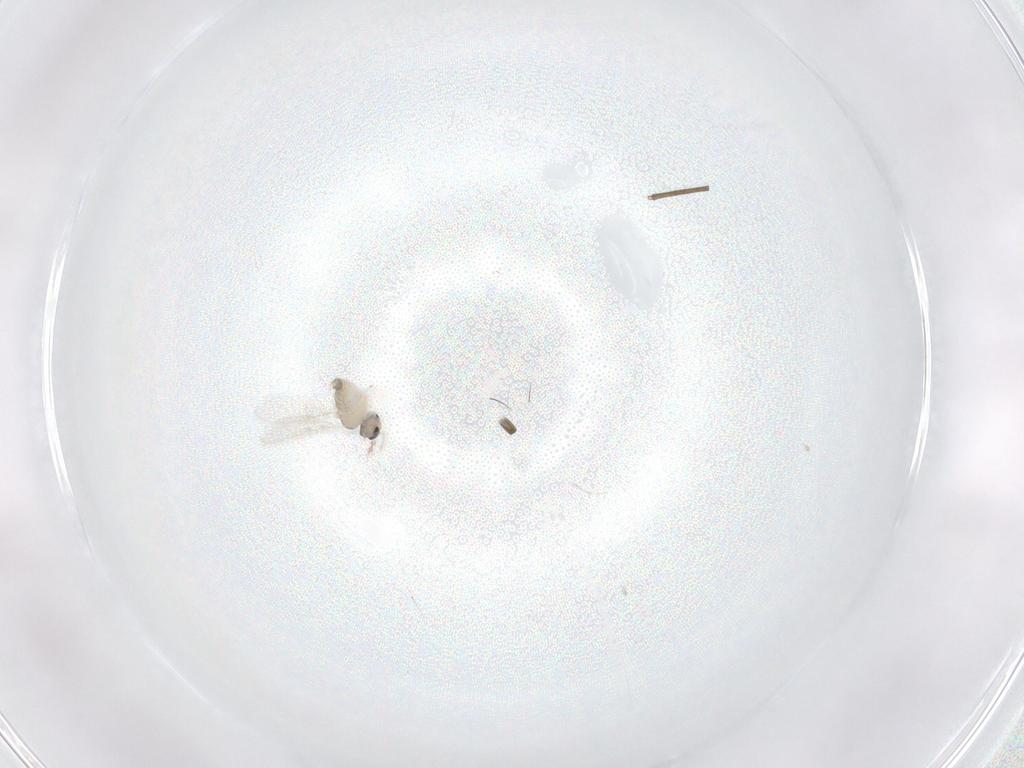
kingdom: Animalia
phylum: Arthropoda
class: Insecta
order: Diptera
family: Cecidomyiidae
